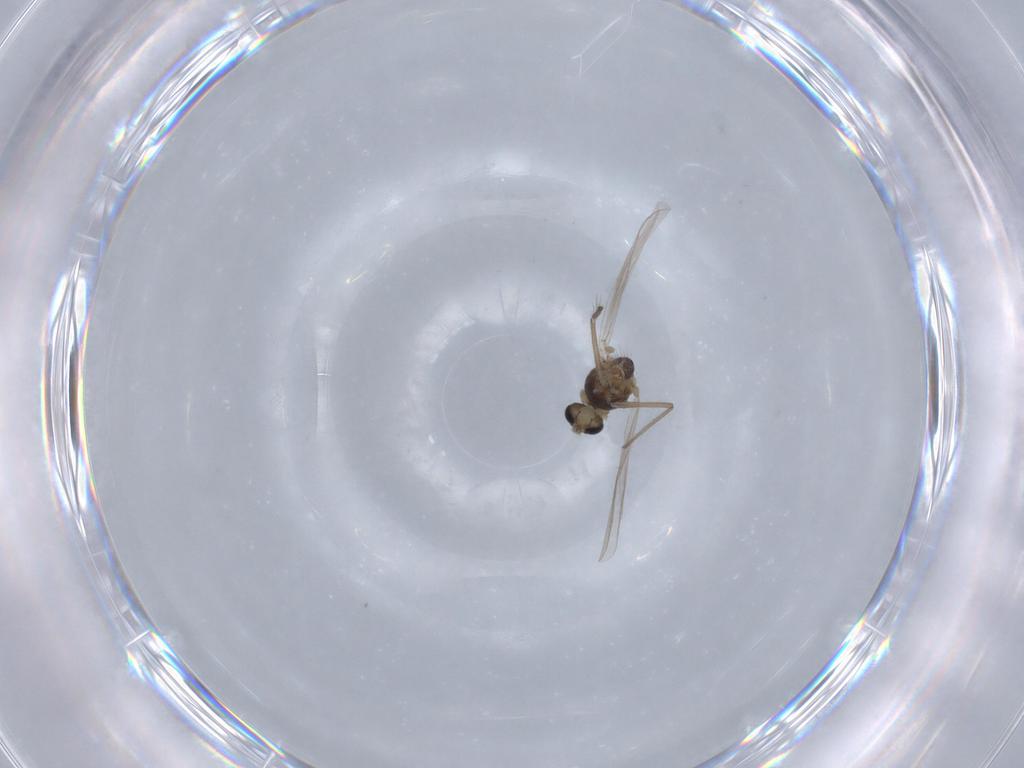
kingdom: Animalia
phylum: Arthropoda
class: Insecta
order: Diptera
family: Chironomidae
